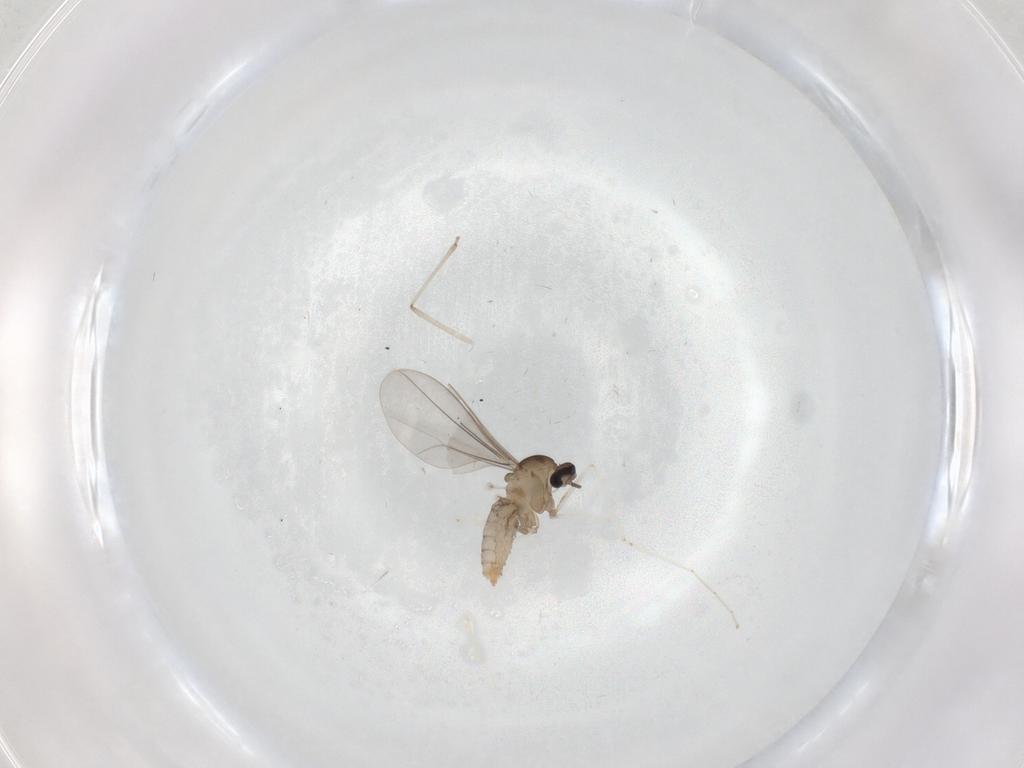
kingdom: Animalia
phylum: Arthropoda
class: Insecta
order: Diptera
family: Cecidomyiidae
